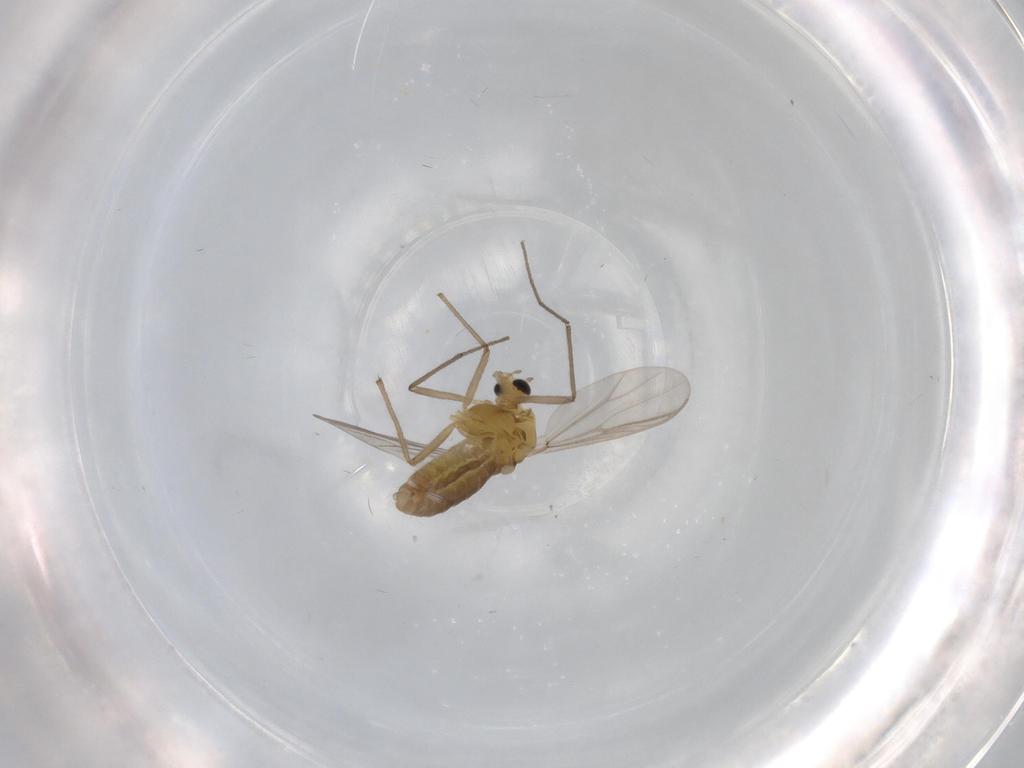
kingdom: Animalia
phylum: Arthropoda
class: Insecta
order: Diptera
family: Chironomidae
